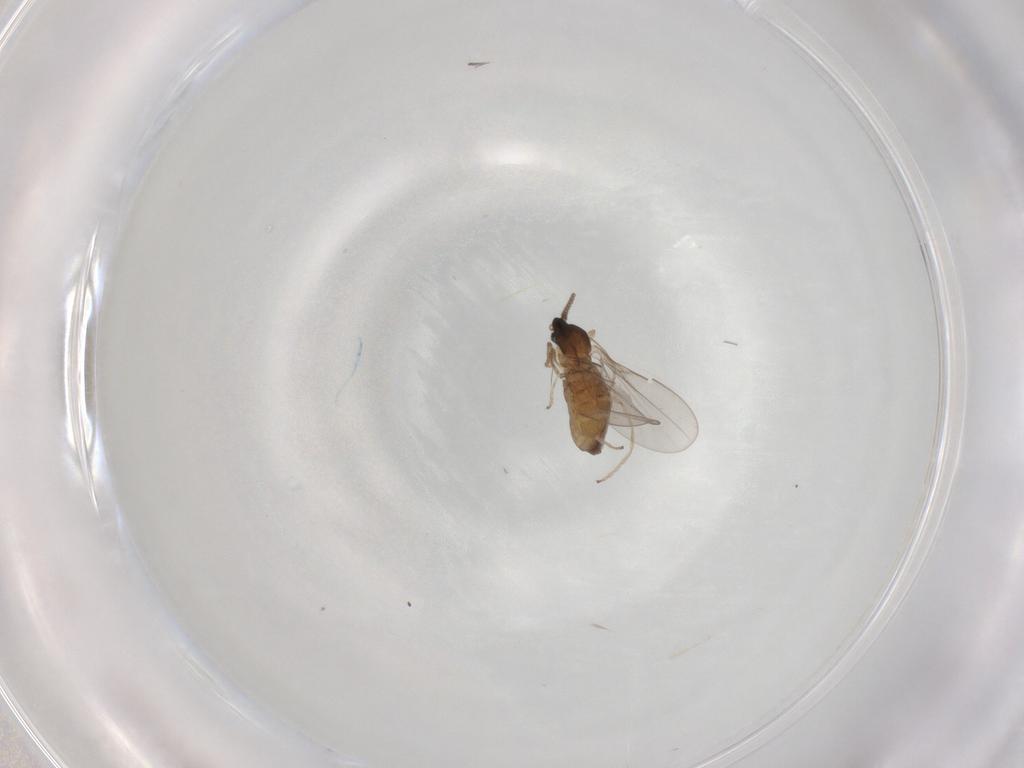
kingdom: Animalia
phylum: Arthropoda
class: Insecta
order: Diptera
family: Cecidomyiidae
